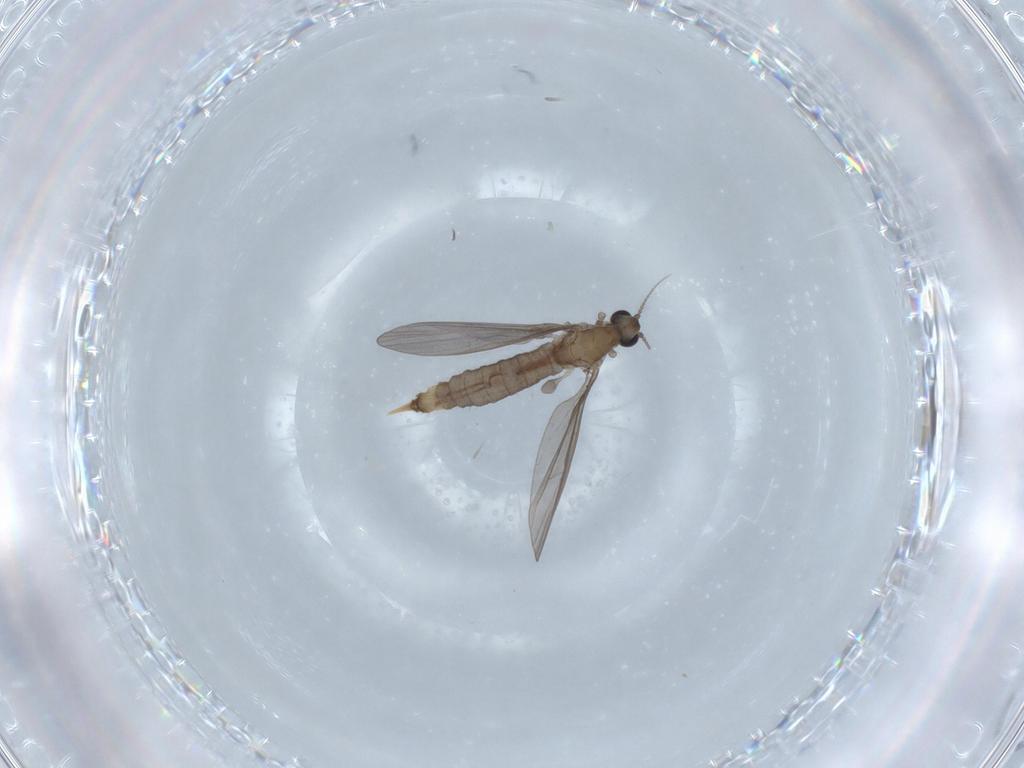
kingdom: Animalia
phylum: Arthropoda
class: Insecta
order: Diptera
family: Limoniidae
